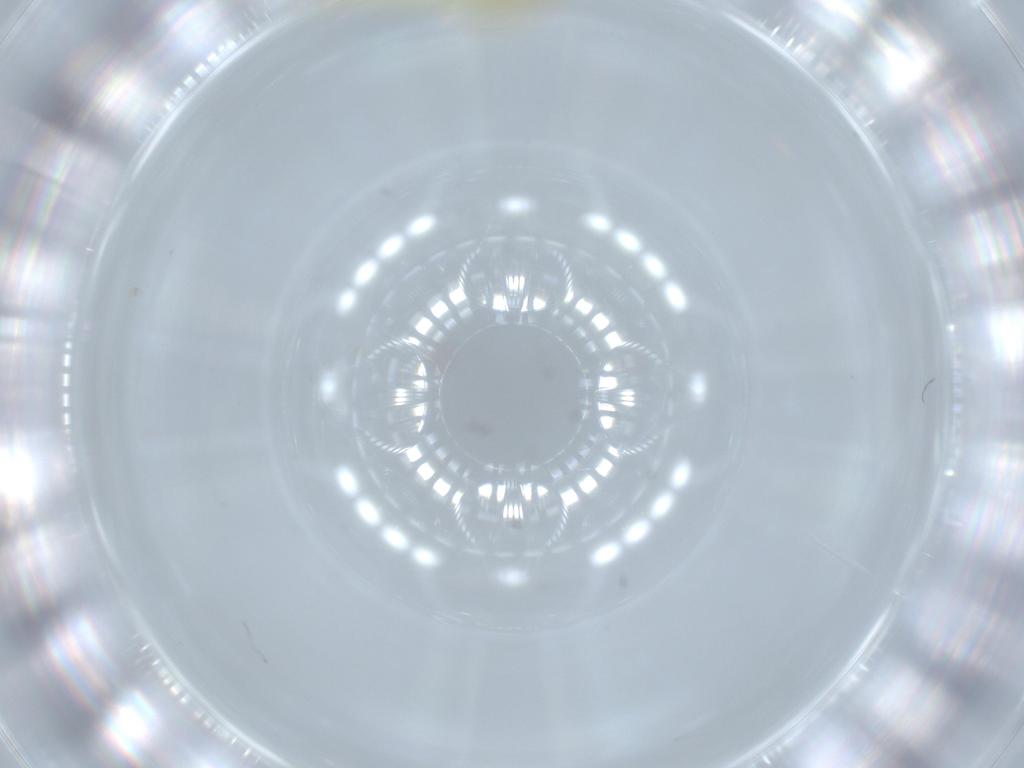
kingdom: Animalia
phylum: Arthropoda
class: Insecta
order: Hemiptera
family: Cicadellidae
